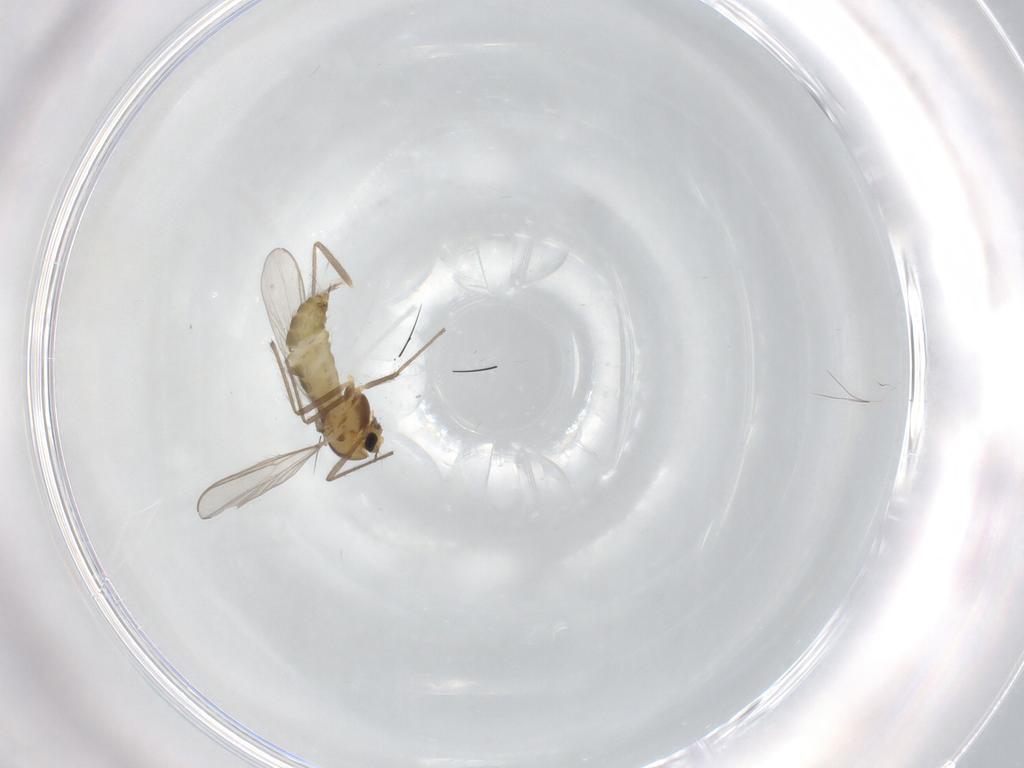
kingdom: Animalia
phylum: Arthropoda
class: Insecta
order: Diptera
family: Chironomidae
